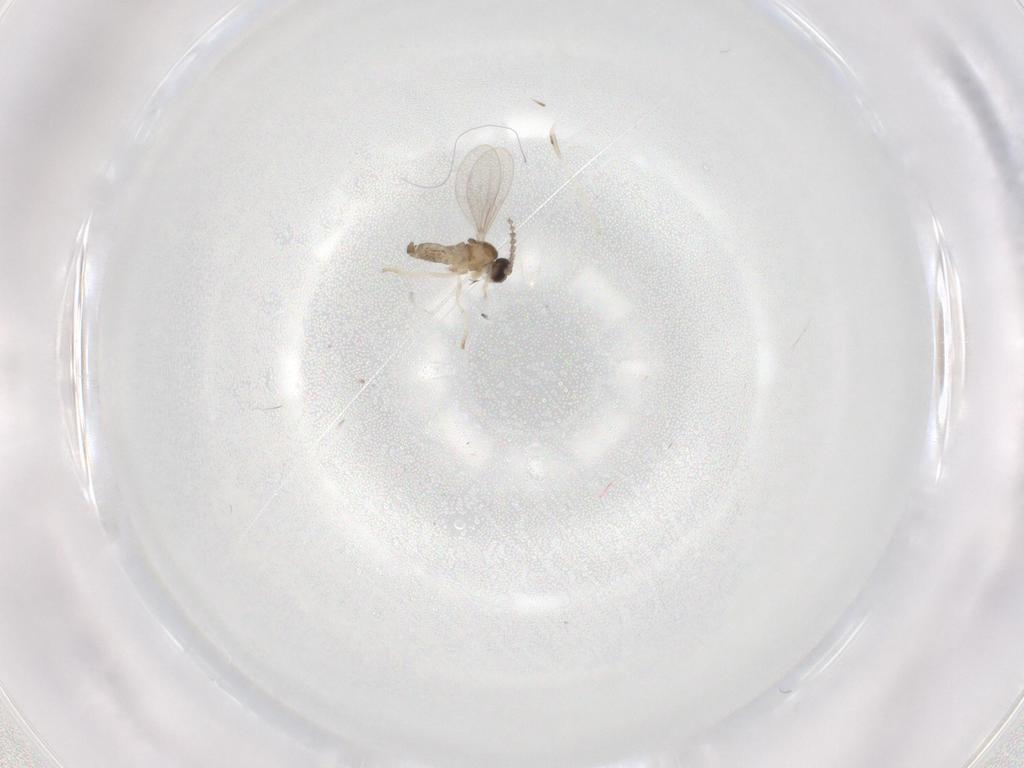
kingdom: Animalia
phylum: Arthropoda
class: Insecta
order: Diptera
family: Cecidomyiidae
